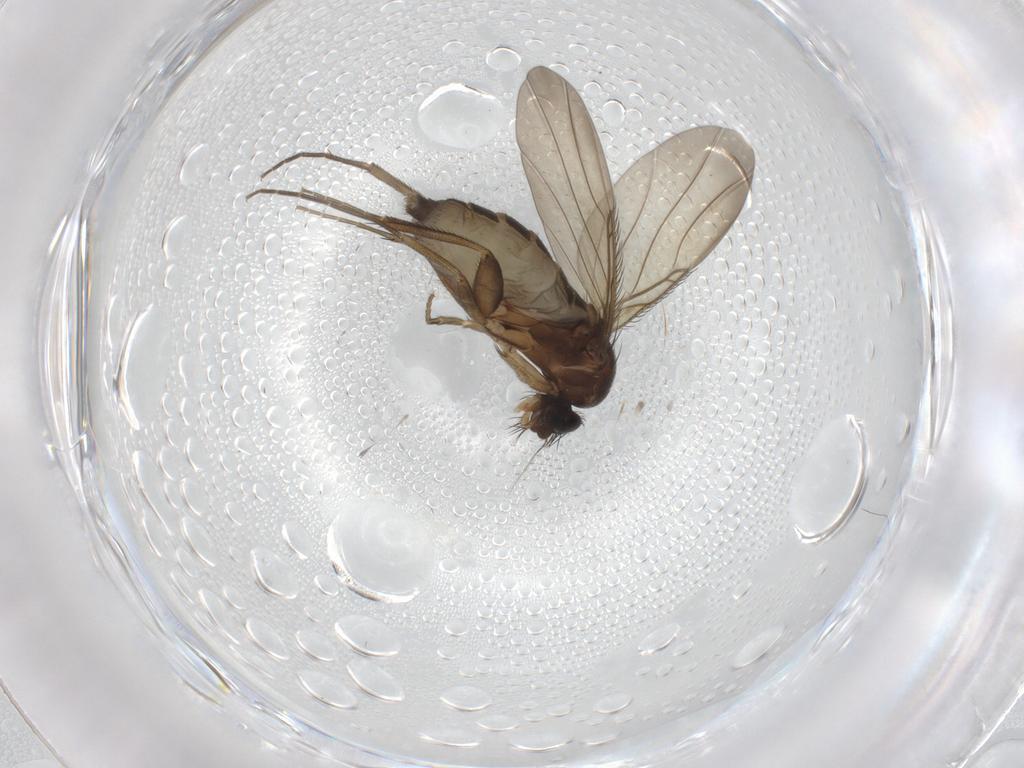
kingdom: Animalia
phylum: Arthropoda
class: Insecta
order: Diptera
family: Phoridae
